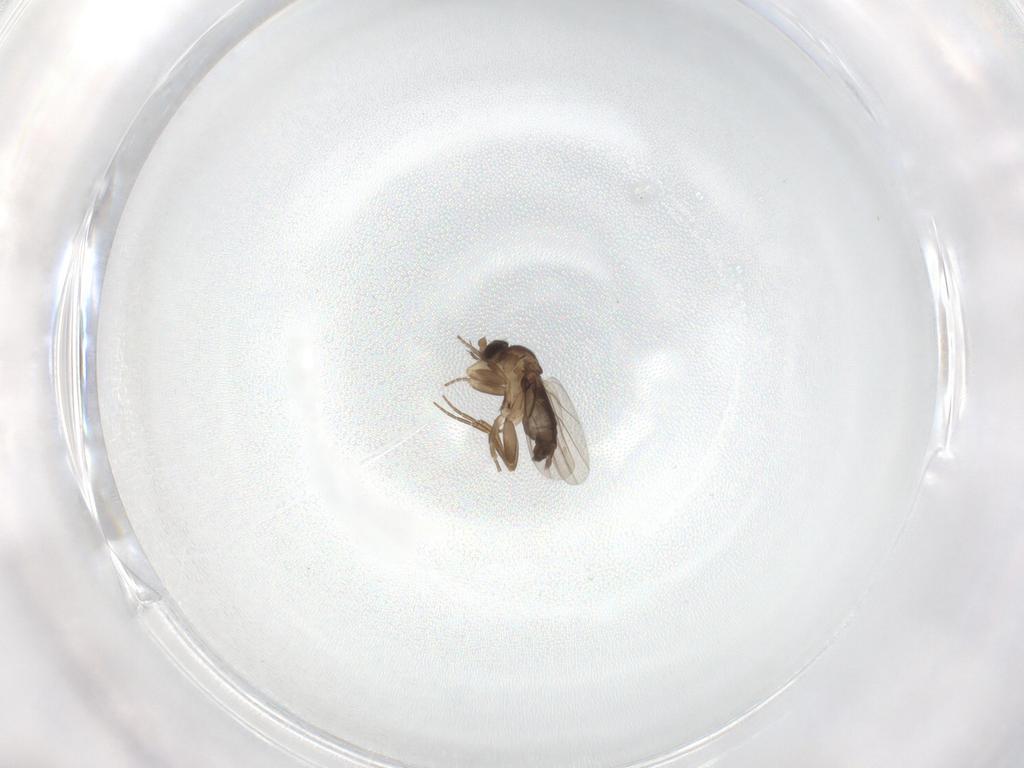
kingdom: Animalia
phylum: Arthropoda
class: Insecta
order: Diptera
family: Phoridae
